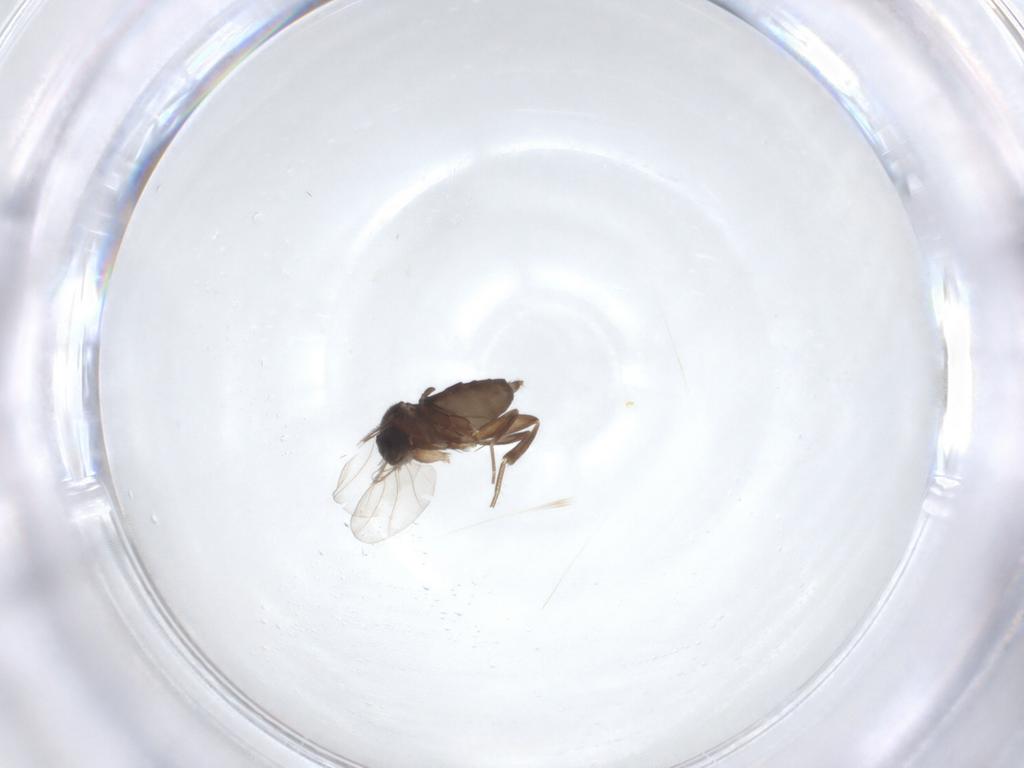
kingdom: Animalia
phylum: Arthropoda
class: Insecta
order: Diptera
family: Phoridae
